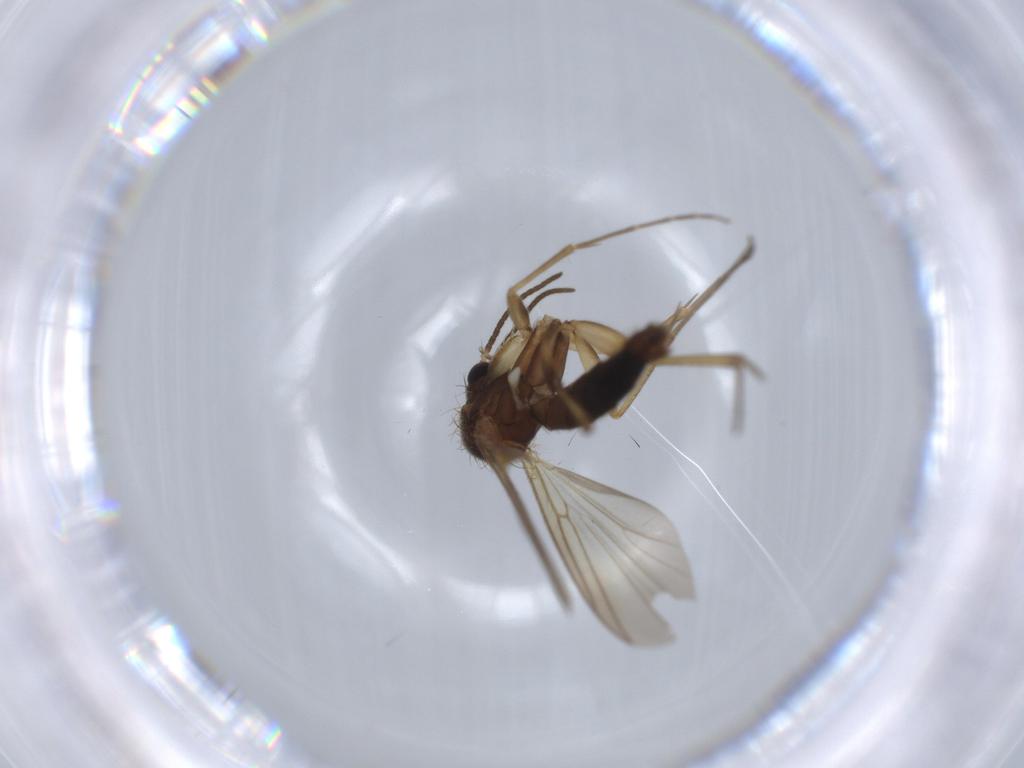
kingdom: Animalia
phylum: Arthropoda
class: Insecta
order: Diptera
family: Mycetophilidae
